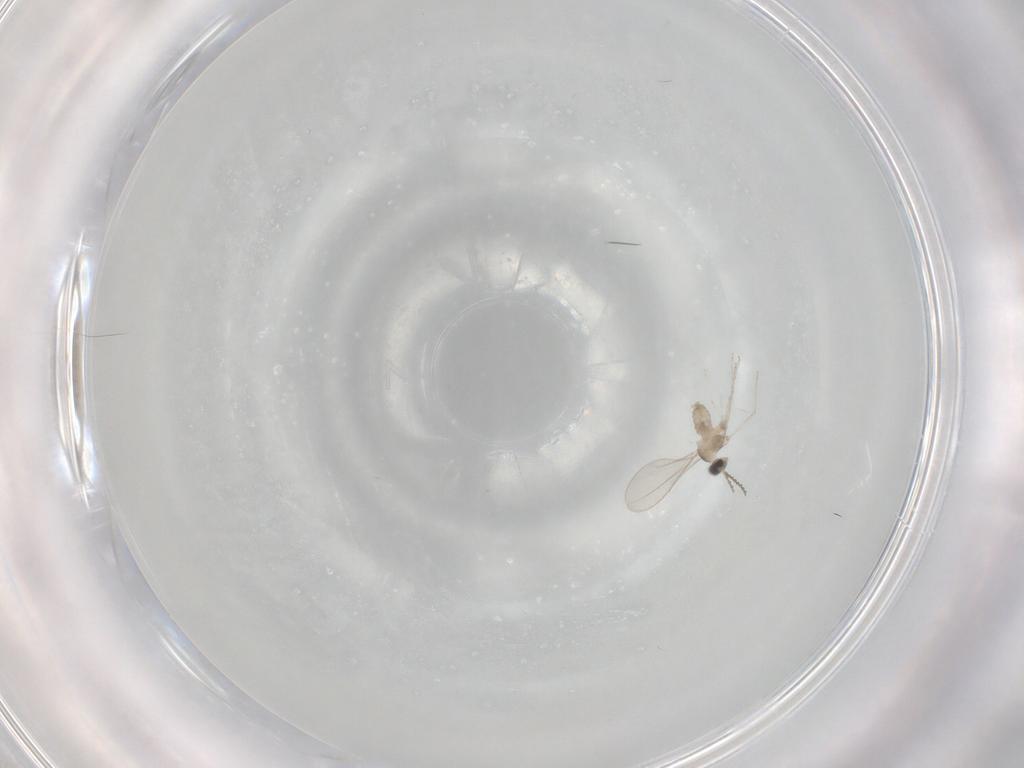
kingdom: Animalia
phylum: Arthropoda
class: Insecta
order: Diptera
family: Cecidomyiidae
